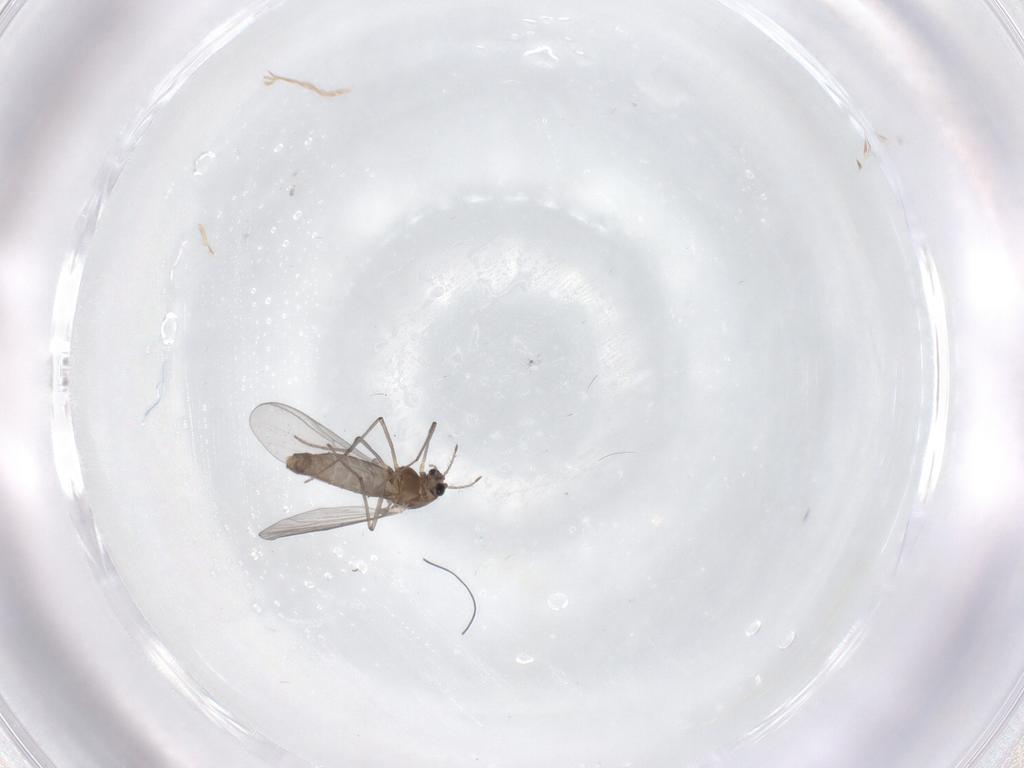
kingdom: Animalia
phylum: Arthropoda
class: Insecta
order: Diptera
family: Chironomidae
